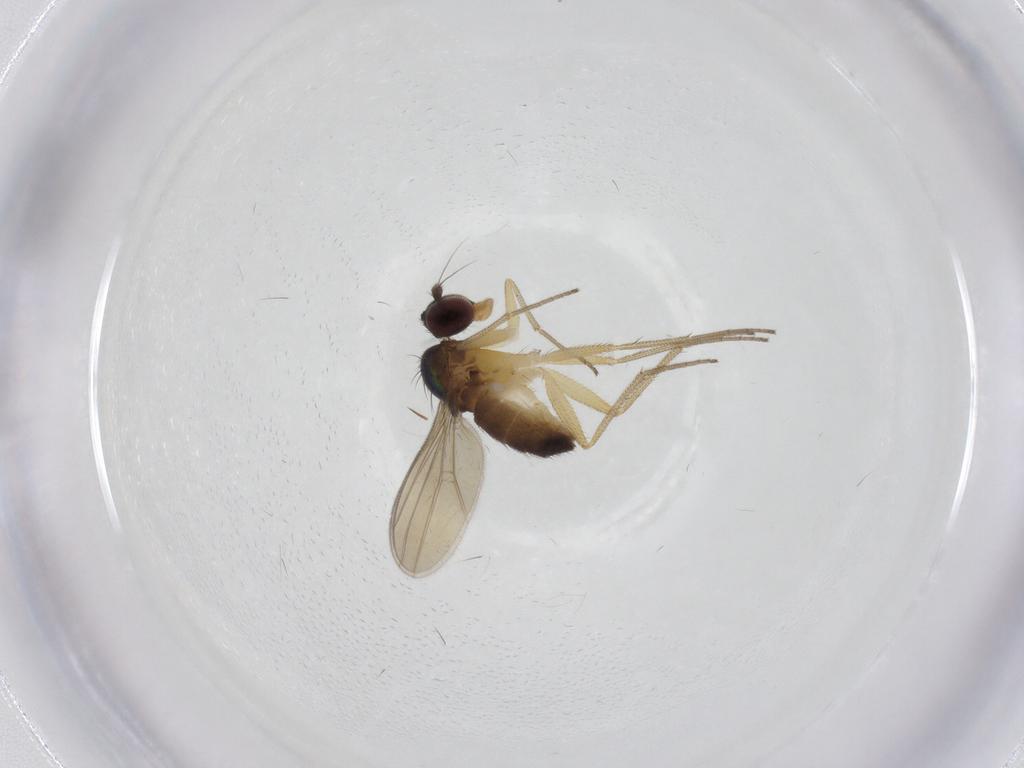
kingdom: Animalia
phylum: Arthropoda
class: Insecta
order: Diptera
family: Dolichopodidae
